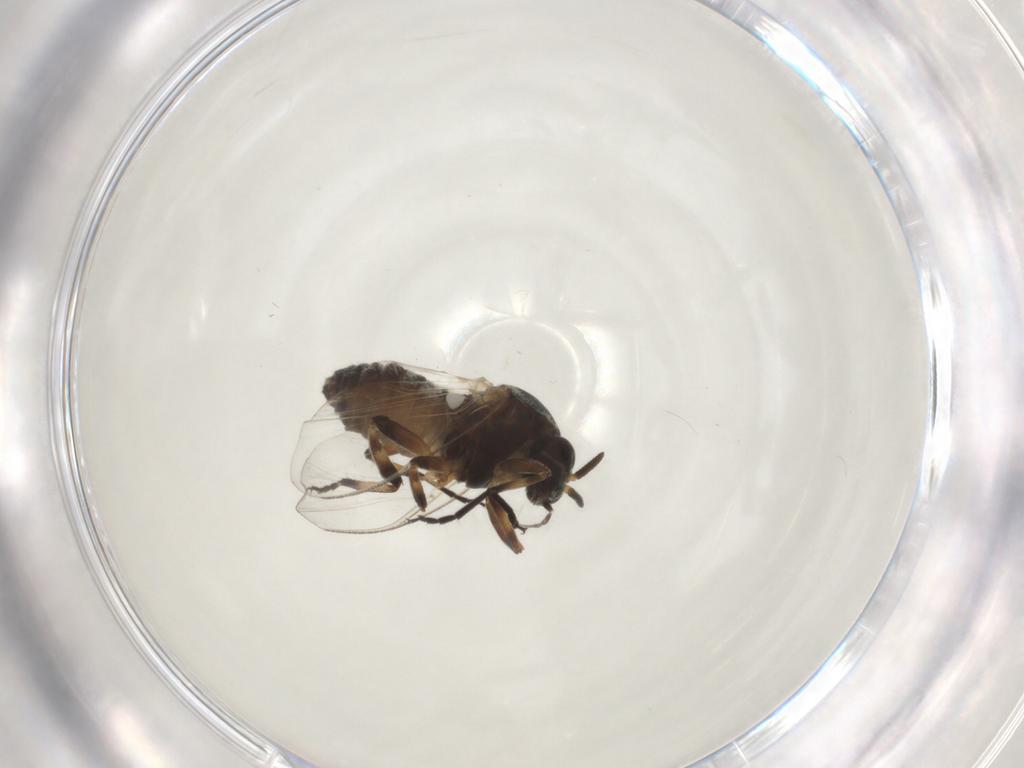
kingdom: Animalia
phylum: Arthropoda
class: Insecta
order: Diptera
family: Chironomidae
